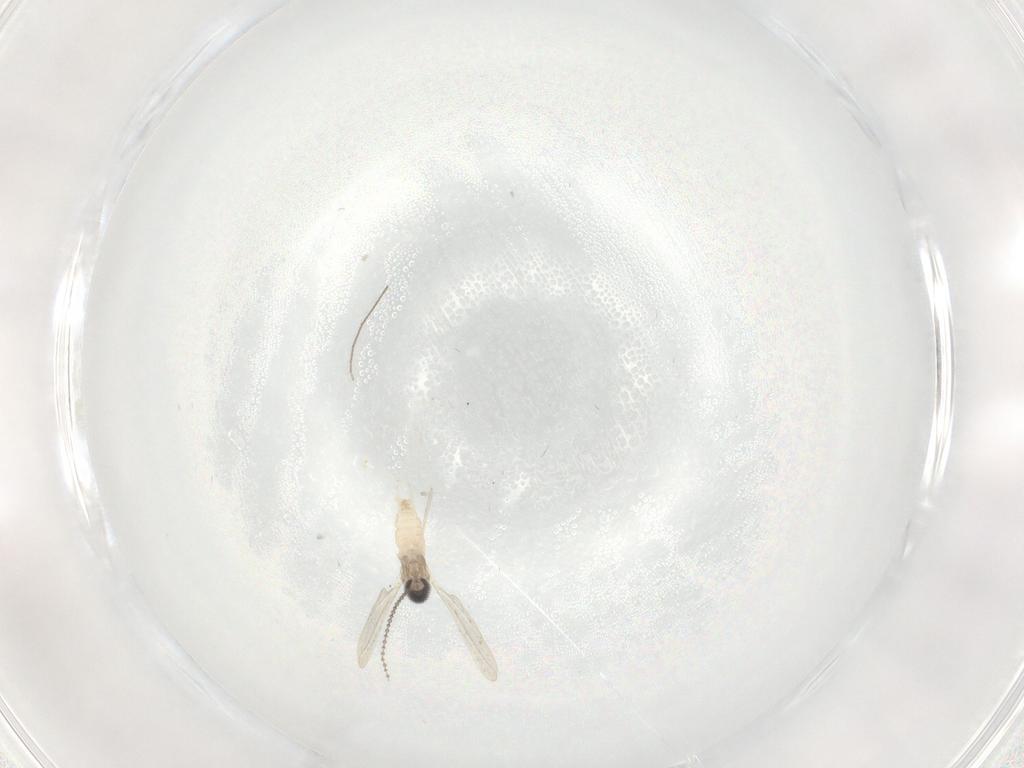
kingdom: Animalia
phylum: Arthropoda
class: Insecta
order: Diptera
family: Cecidomyiidae
